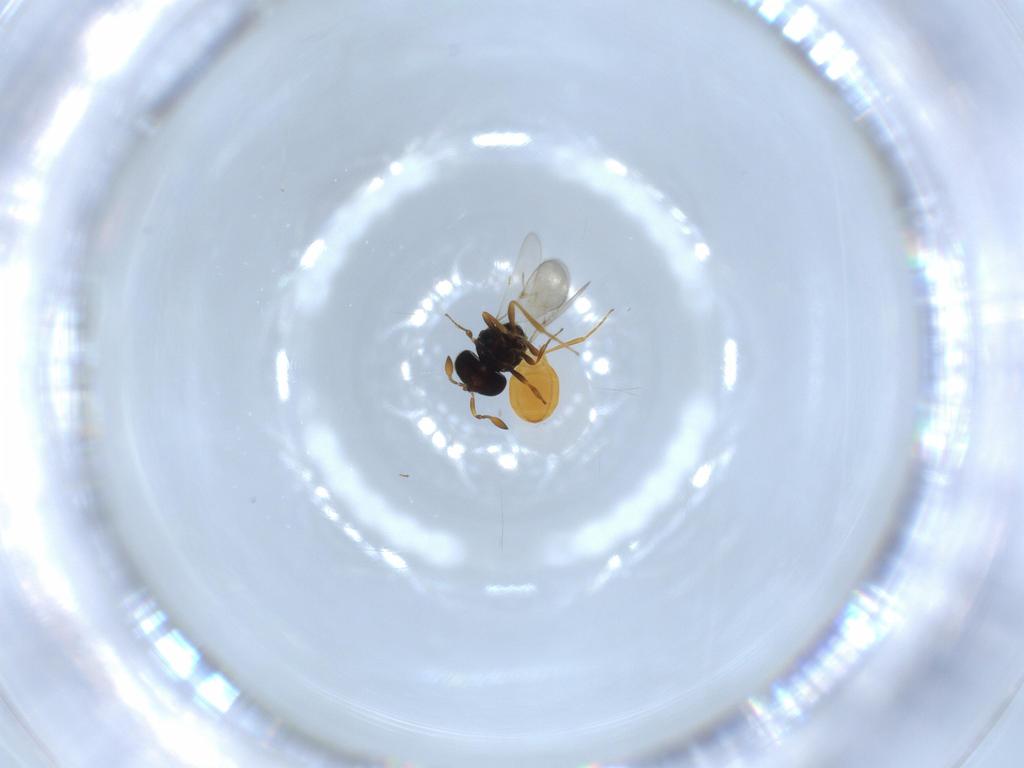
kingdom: Animalia
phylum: Arthropoda
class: Insecta
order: Hymenoptera
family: Scelionidae
